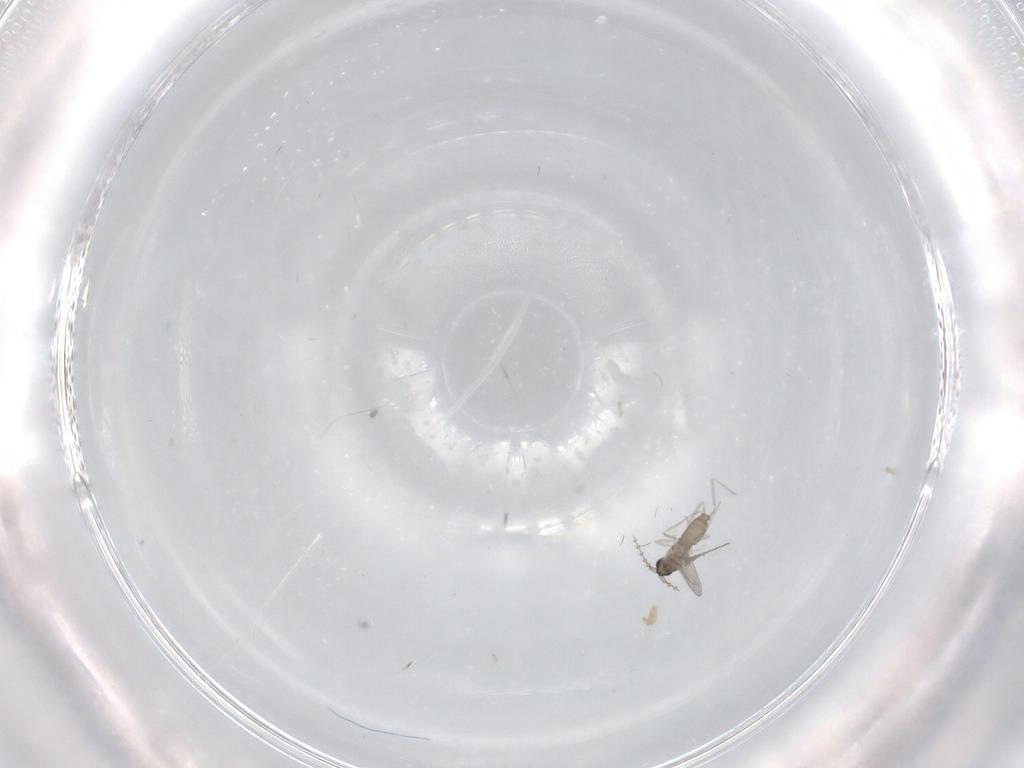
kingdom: Animalia
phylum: Arthropoda
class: Insecta
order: Diptera
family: Cecidomyiidae
